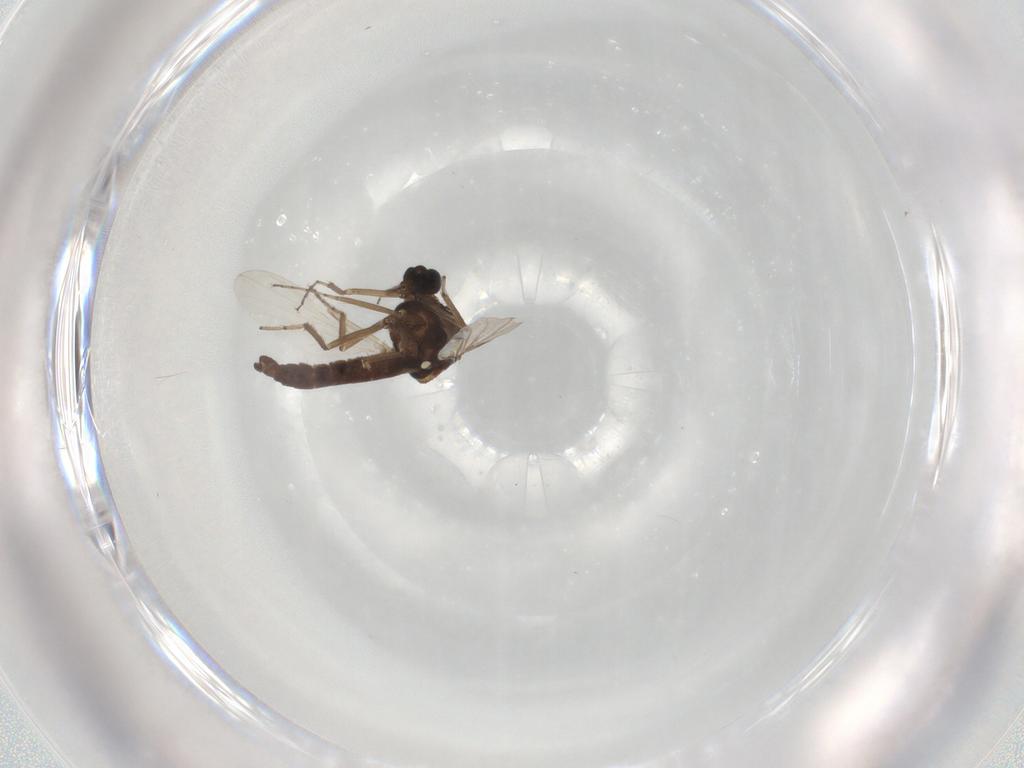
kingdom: Animalia
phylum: Arthropoda
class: Insecta
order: Diptera
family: Ceratopogonidae
